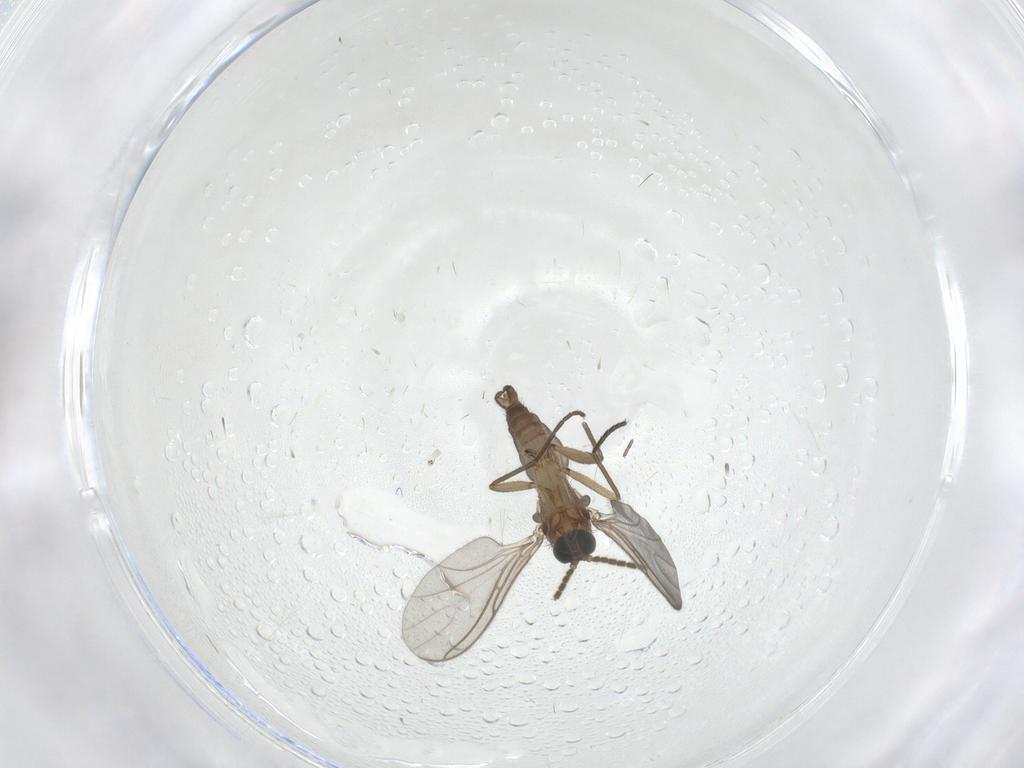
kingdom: Animalia
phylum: Arthropoda
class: Insecta
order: Diptera
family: Sciaridae
